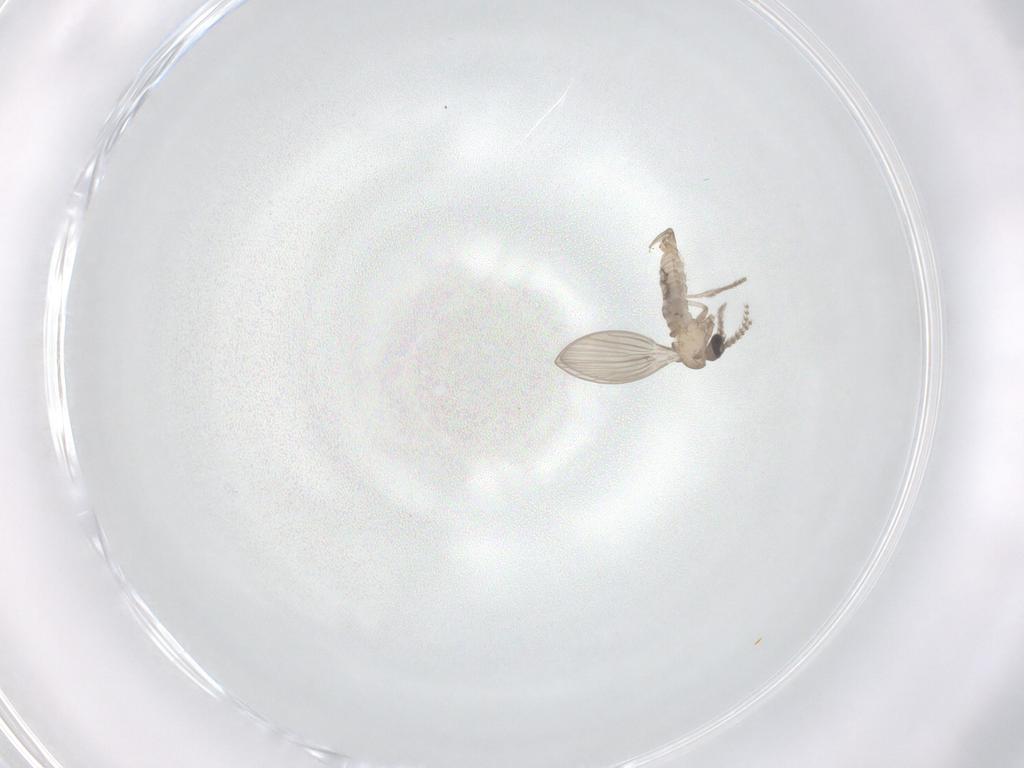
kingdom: Animalia
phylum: Arthropoda
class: Insecta
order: Diptera
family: Psychodidae
